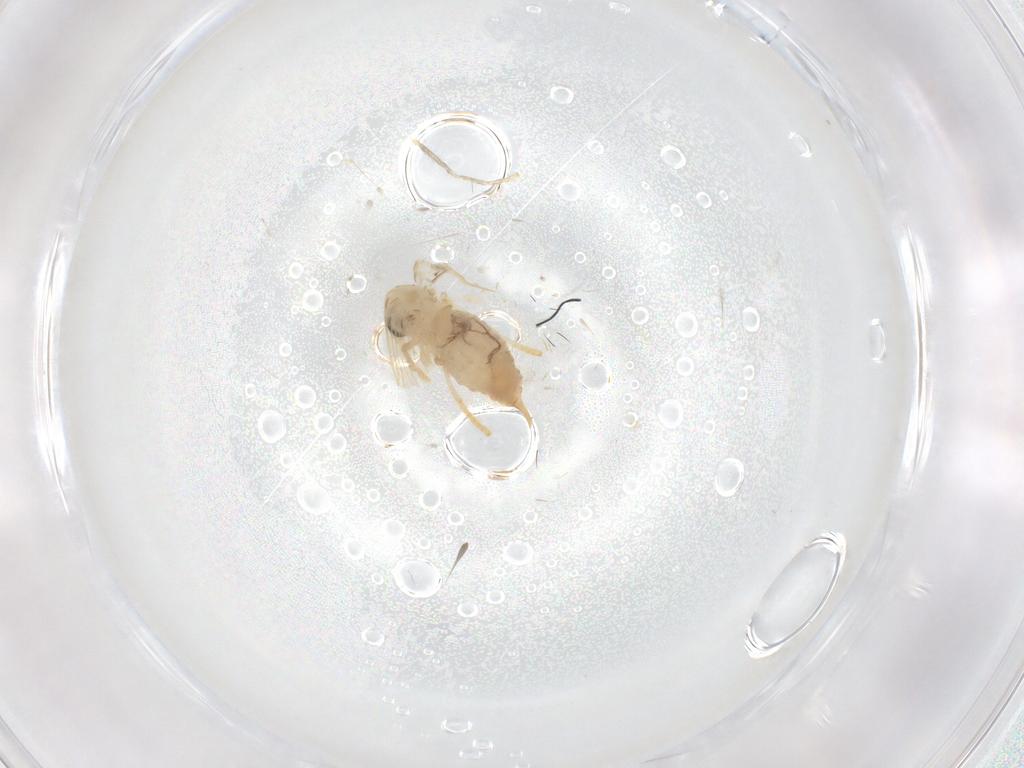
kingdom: Animalia
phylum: Arthropoda
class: Insecta
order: Diptera
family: Psychodidae
